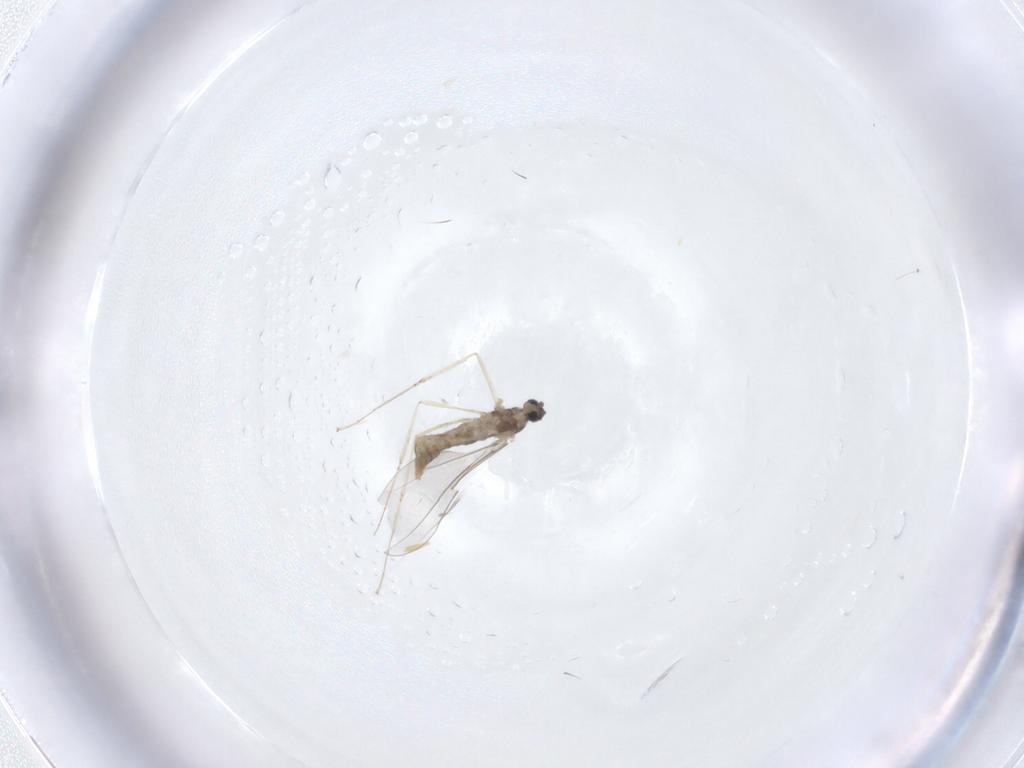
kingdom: Animalia
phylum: Arthropoda
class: Insecta
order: Diptera
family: Cecidomyiidae
